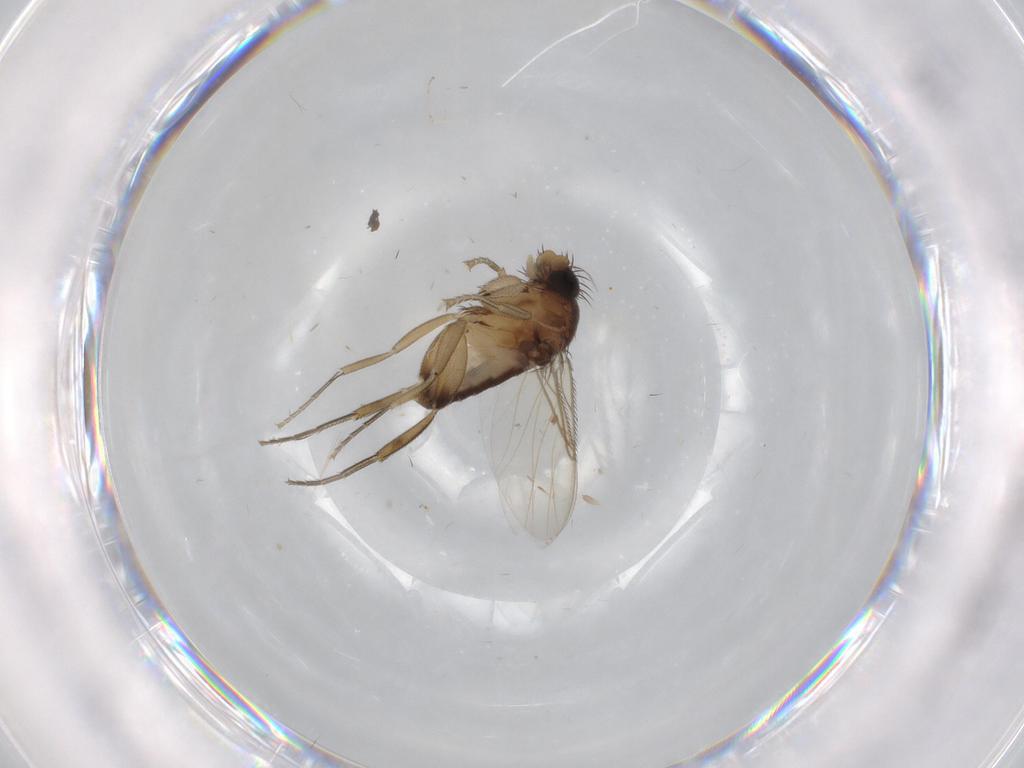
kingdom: Animalia
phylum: Arthropoda
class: Insecta
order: Diptera
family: Phoridae
